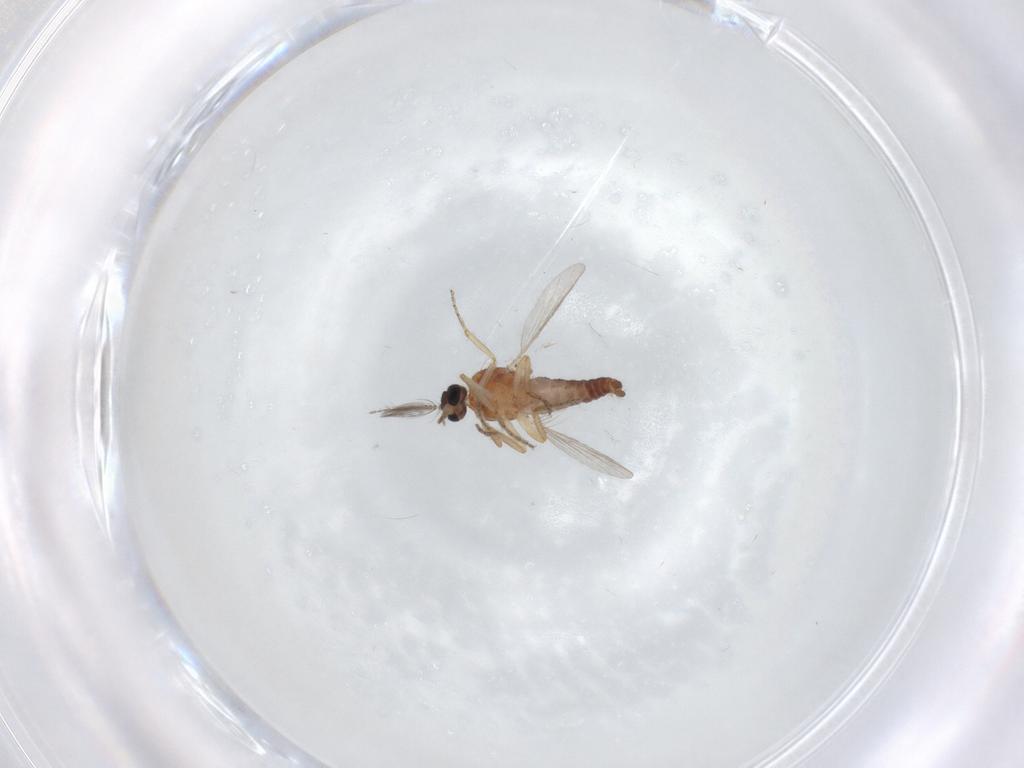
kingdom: Animalia
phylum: Arthropoda
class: Insecta
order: Diptera
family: Ceratopogonidae
